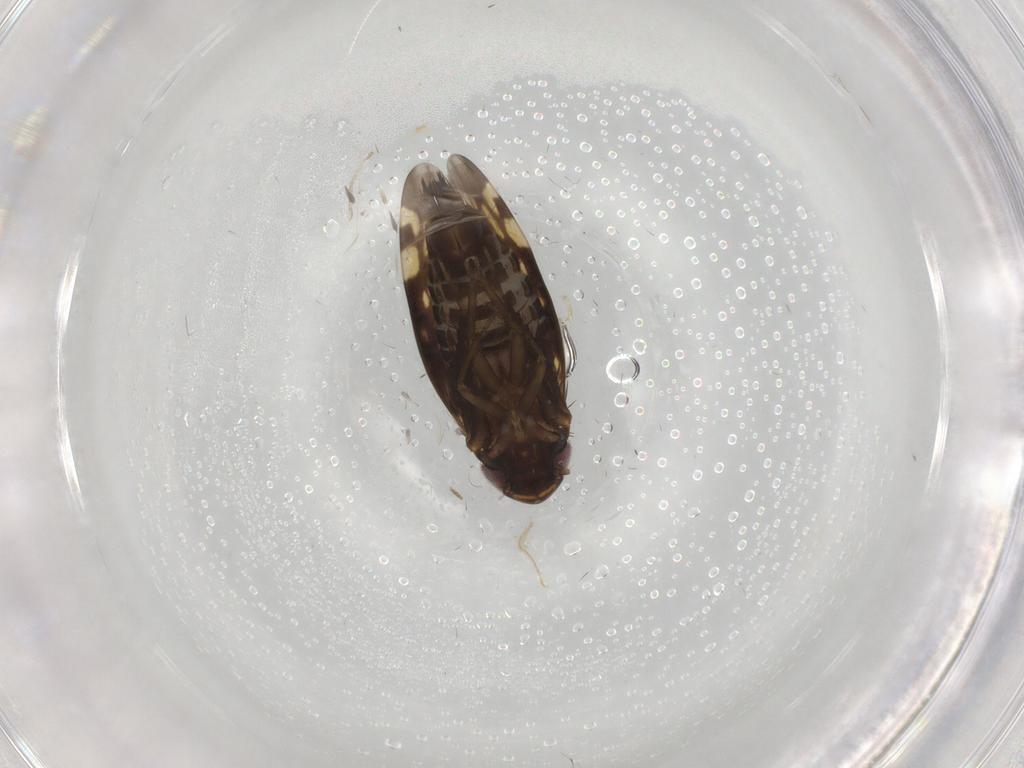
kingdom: Animalia
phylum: Arthropoda
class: Insecta
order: Hemiptera
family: Cicadellidae
